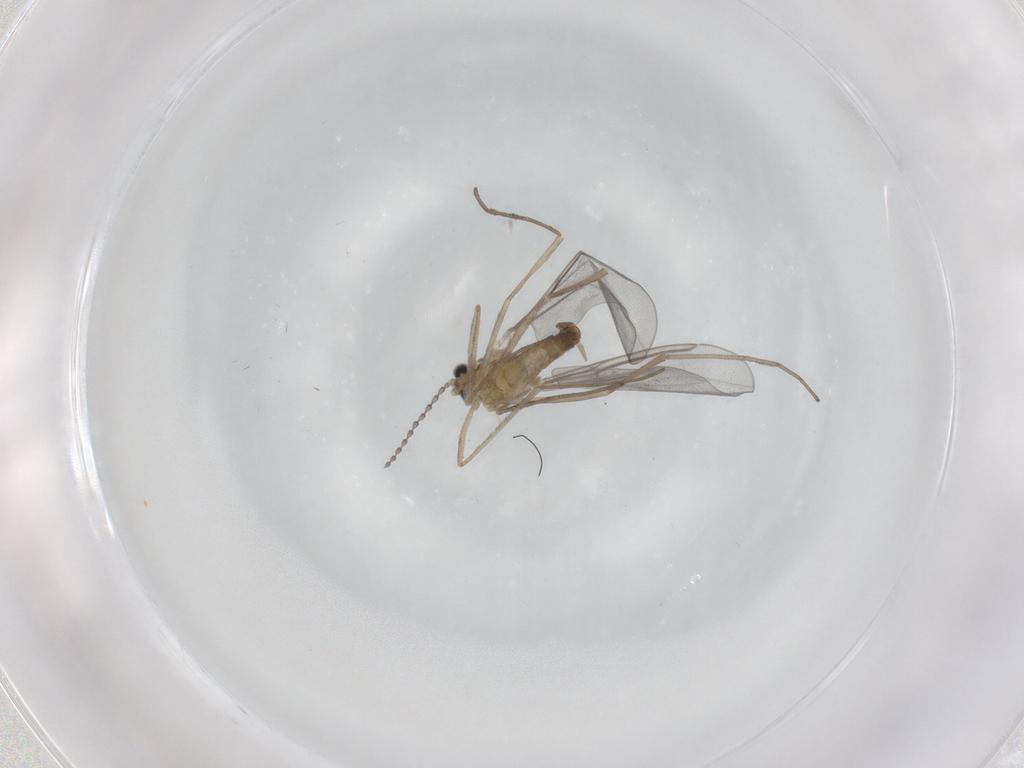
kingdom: Animalia
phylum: Arthropoda
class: Insecta
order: Diptera
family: Cecidomyiidae
